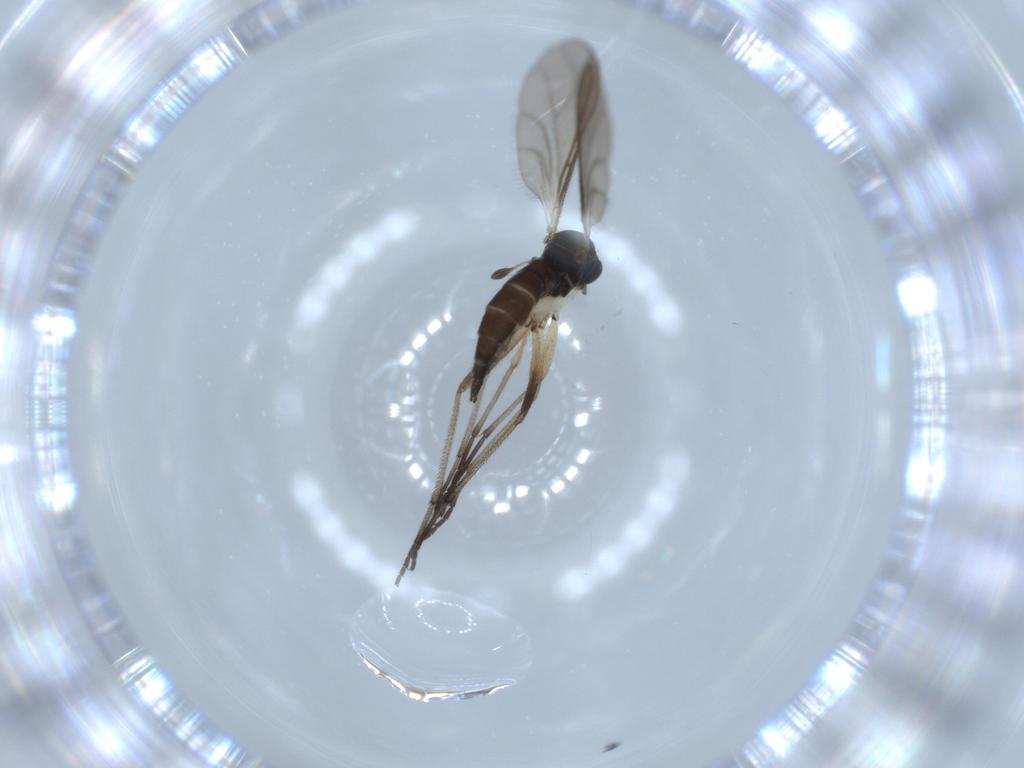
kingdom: Animalia
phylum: Arthropoda
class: Insecta
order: Diptera
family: Sciaridae
